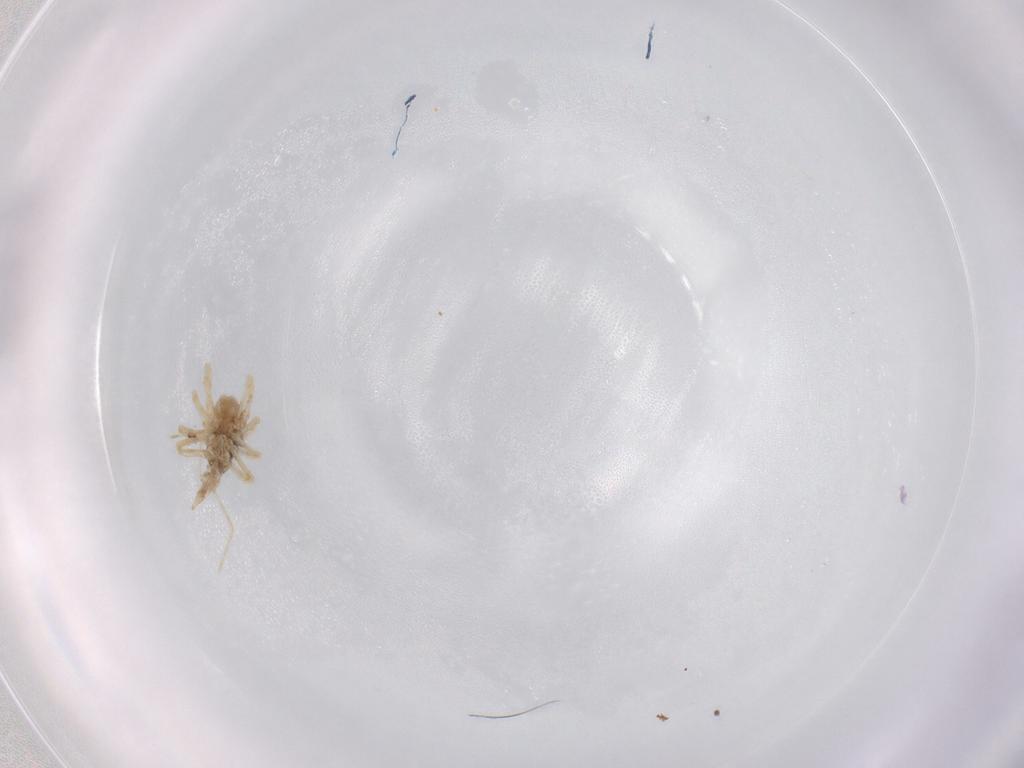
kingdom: Animalia
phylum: Arthropoda
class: Arachnida
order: Trombidiformes
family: Bdellidae
